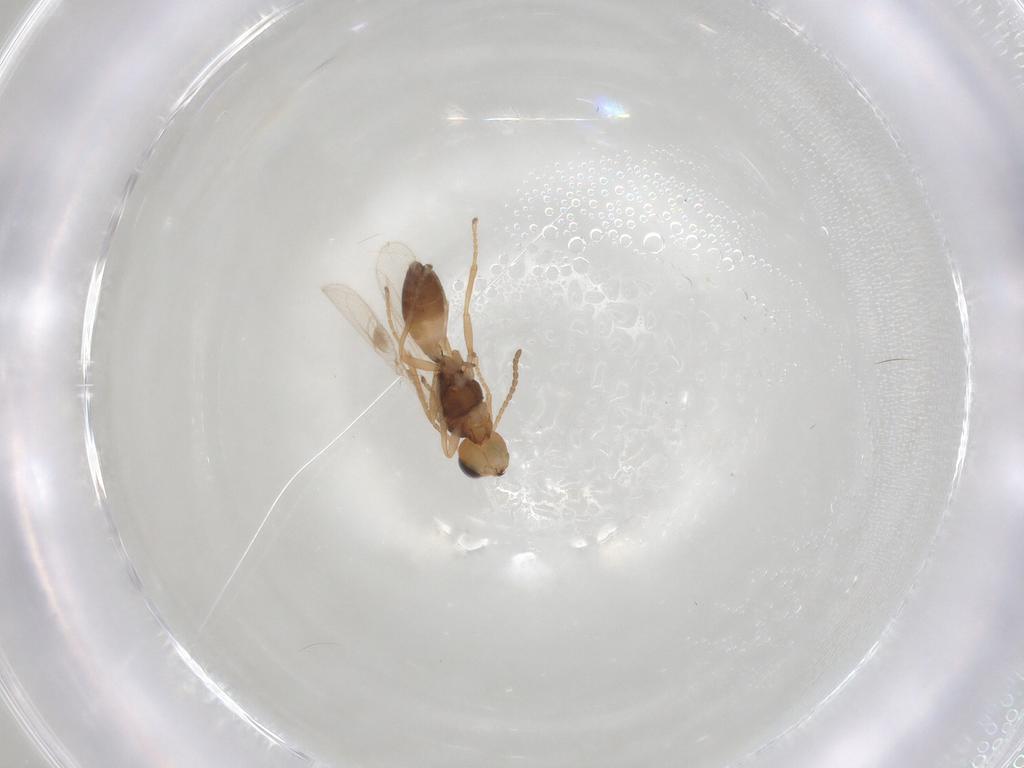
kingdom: Animalia
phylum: Arthropoda
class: Insecta
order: Hymenoptera
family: Braconidae
